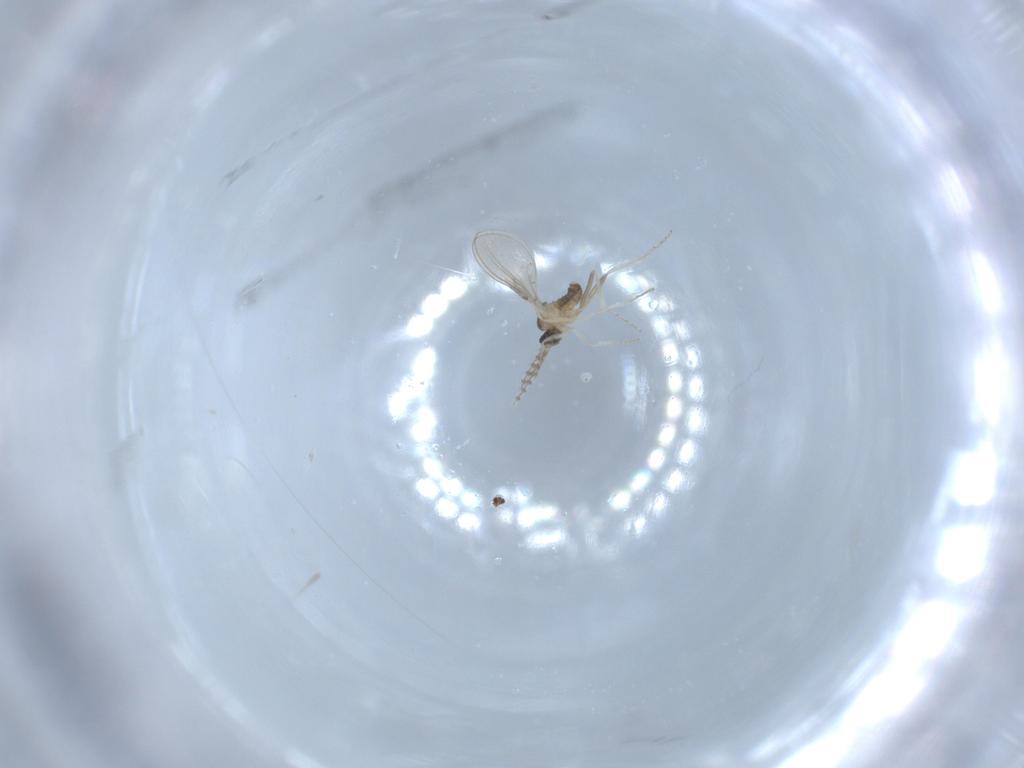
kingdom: Animalia
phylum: Arthropoda
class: Insecta
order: Diptera
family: Cecidomyiidae
